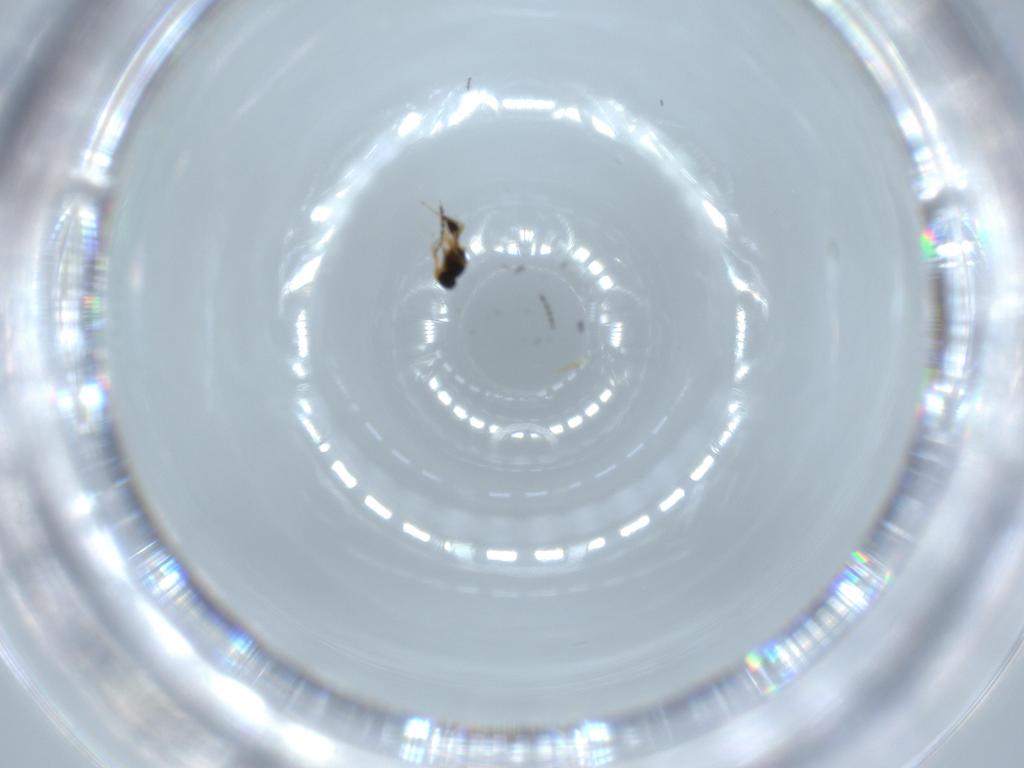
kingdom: Animalia
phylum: Arthropoda
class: Insecta
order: Hymenoptera
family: Platygastridae
